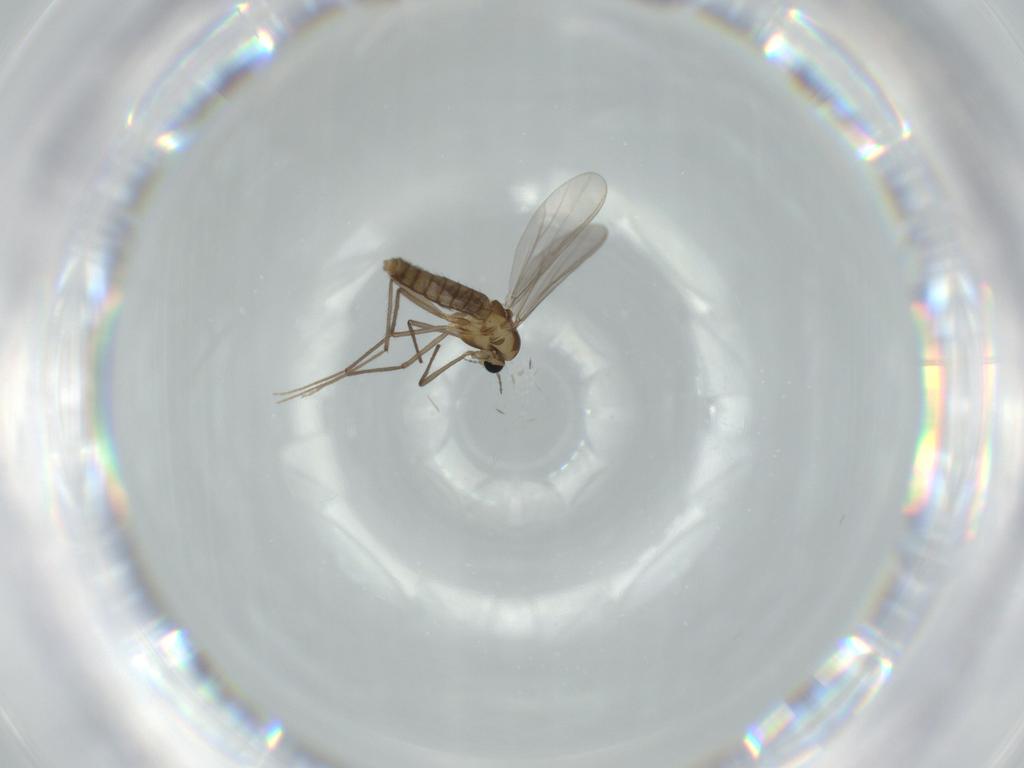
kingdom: Animalia
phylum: Arthropoda
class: Insecta
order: Diptera
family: Chironomidae
